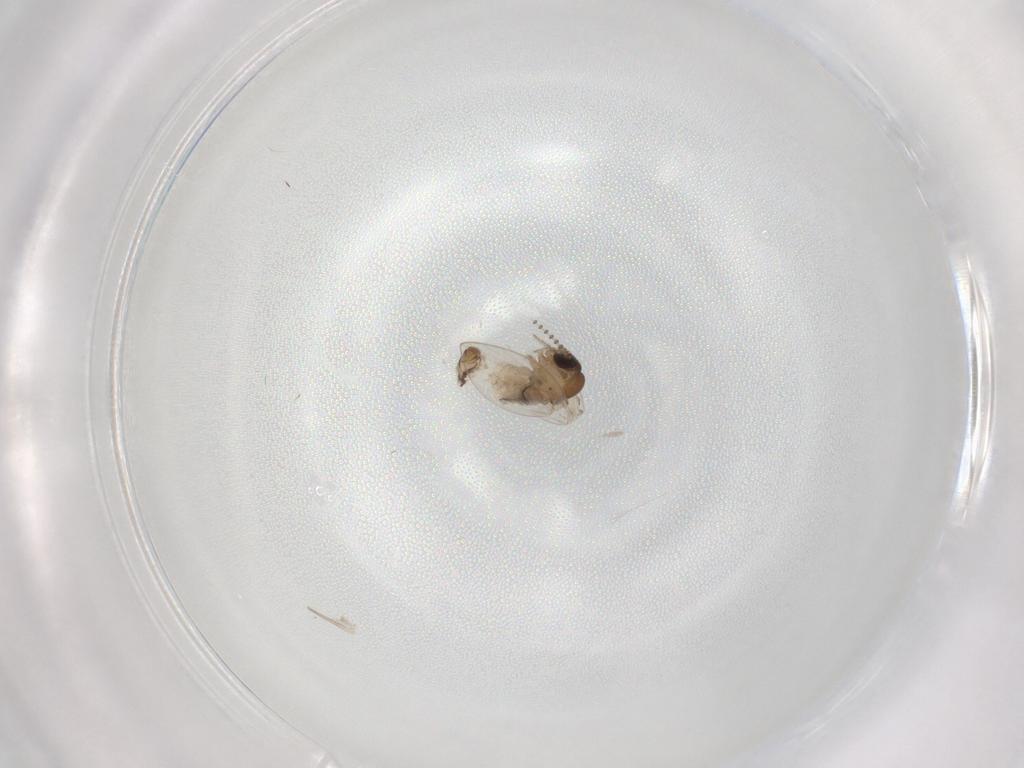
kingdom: Animalia
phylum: Arthropoda
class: Insecta
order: Diptera
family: Psychodidae
